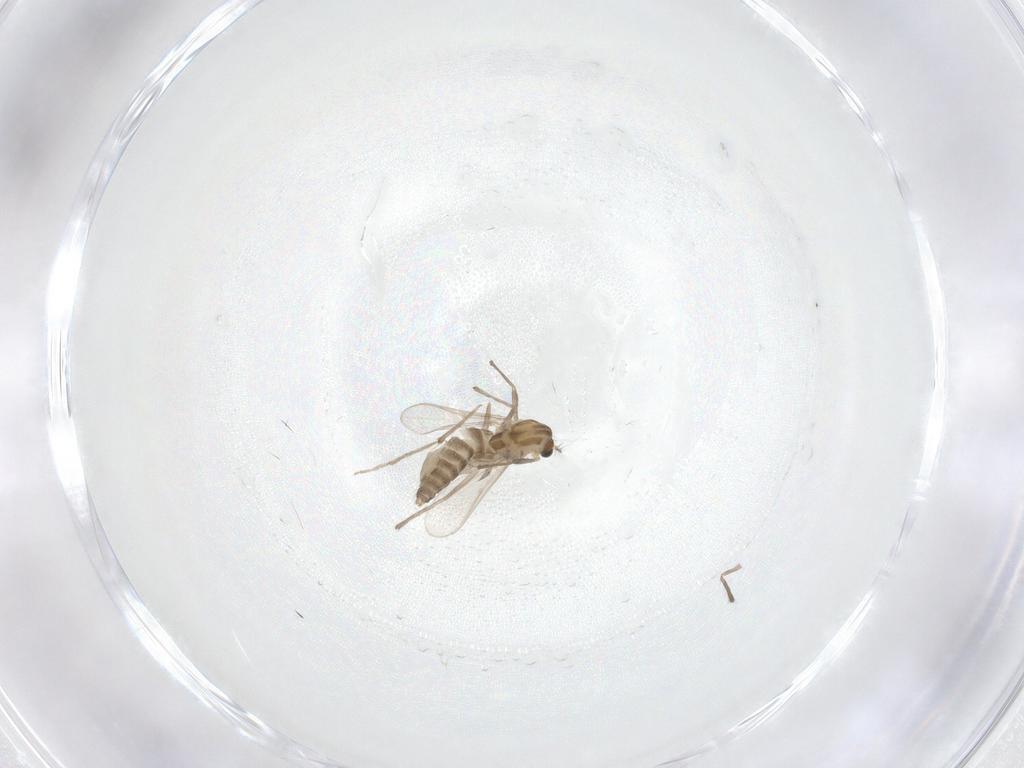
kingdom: Animalia
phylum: Arthropoda
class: Insecta
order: Diptera
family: Chironomidae
